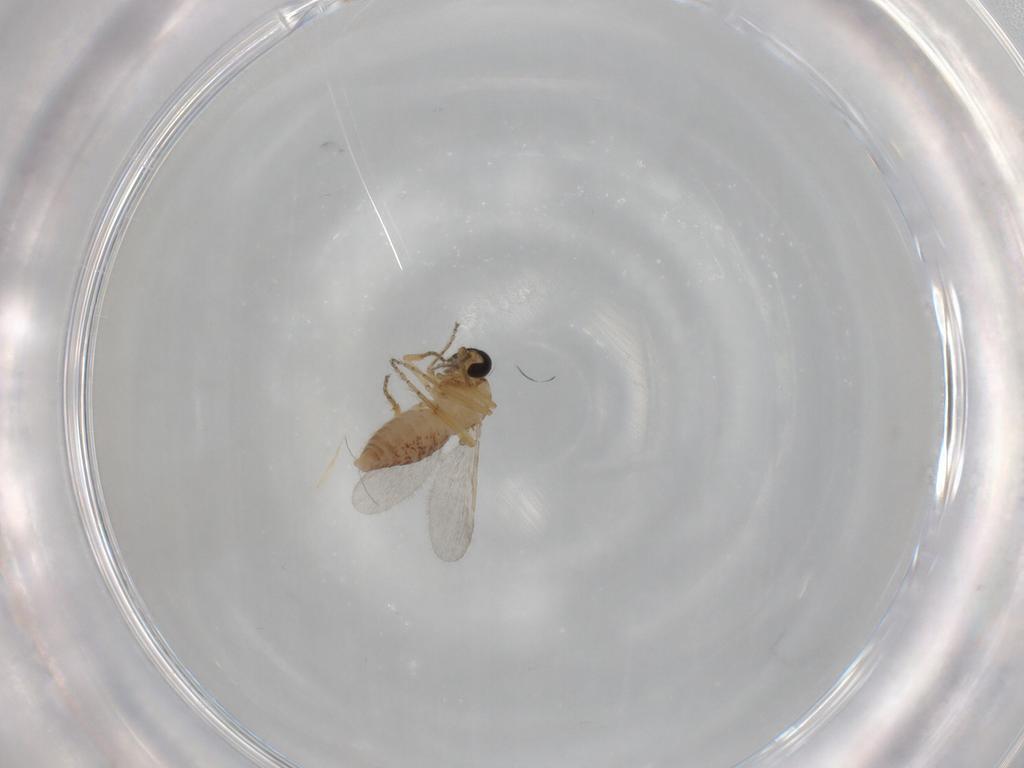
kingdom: Animalia
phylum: Arthropoda
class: Insecta
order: Diptera
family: Ceratopogonidae
